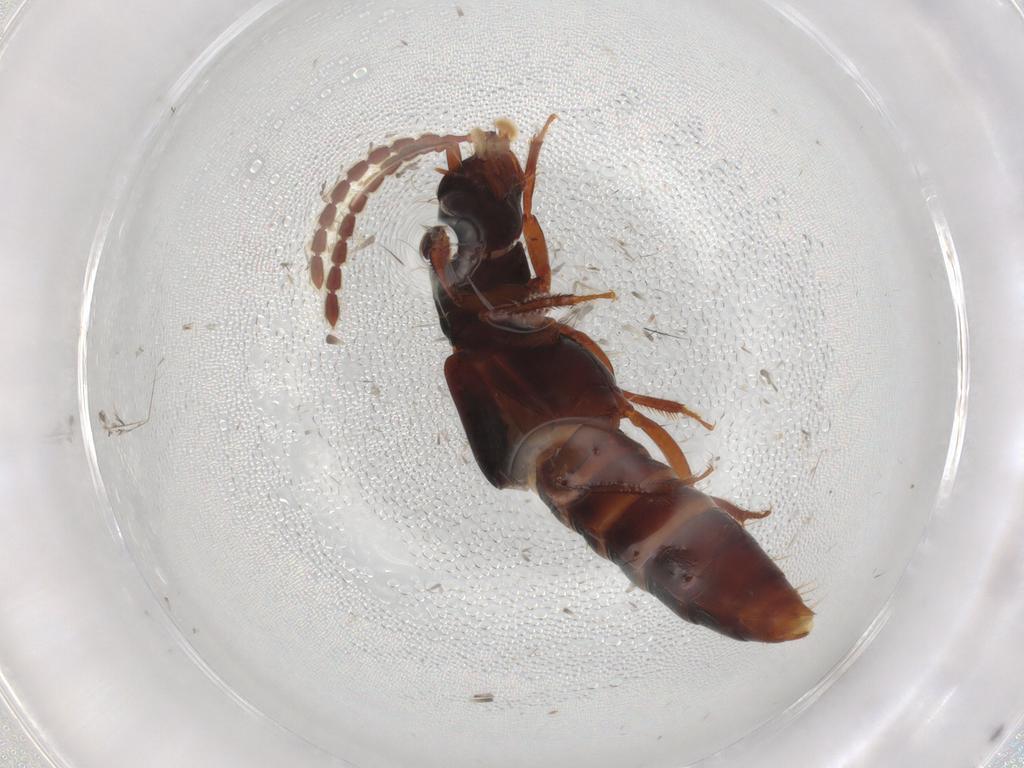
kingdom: Animalia
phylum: Arthropoda
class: Insecta
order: Coleoptera
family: Staphylinidae
